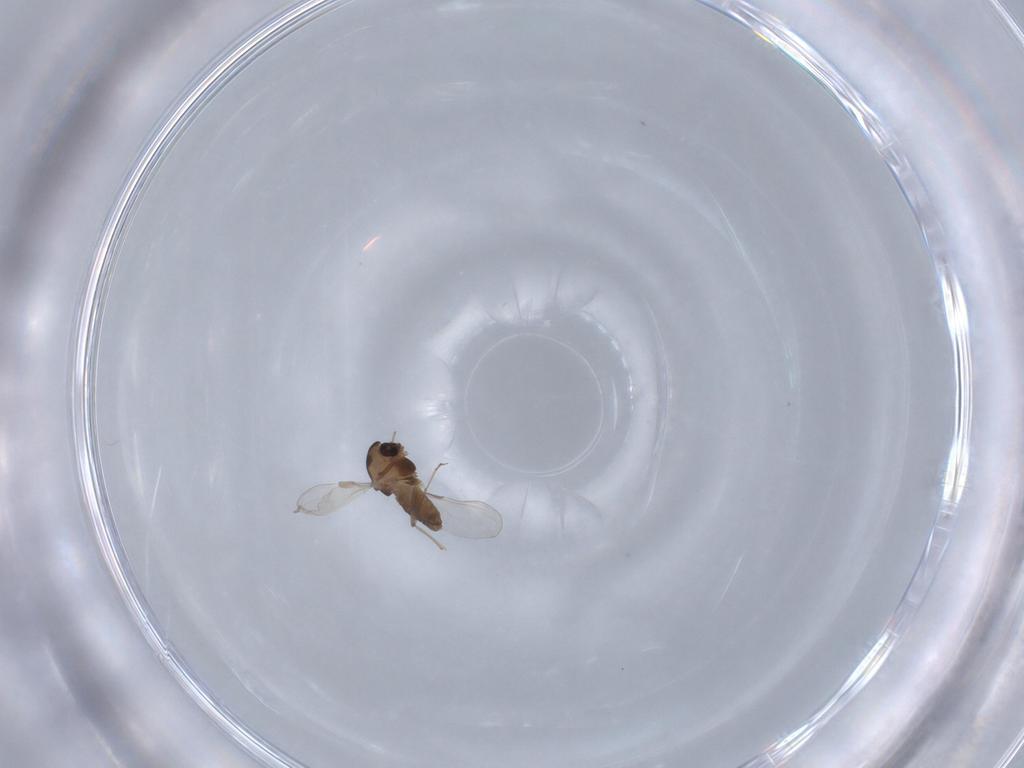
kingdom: Animalia
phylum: Arthropoda
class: Insecta
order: Diptera
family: Chironomidae
